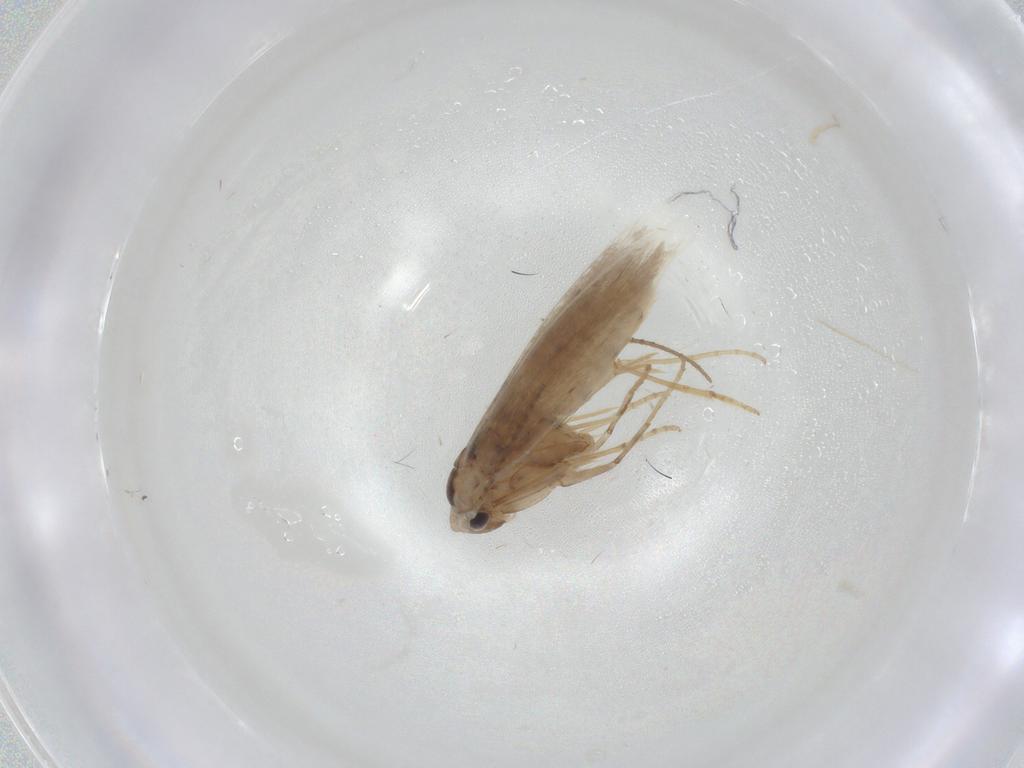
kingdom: Animalia
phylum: Arthropoda
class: Insecta
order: Lepidoptera
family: Bucculatricidae
